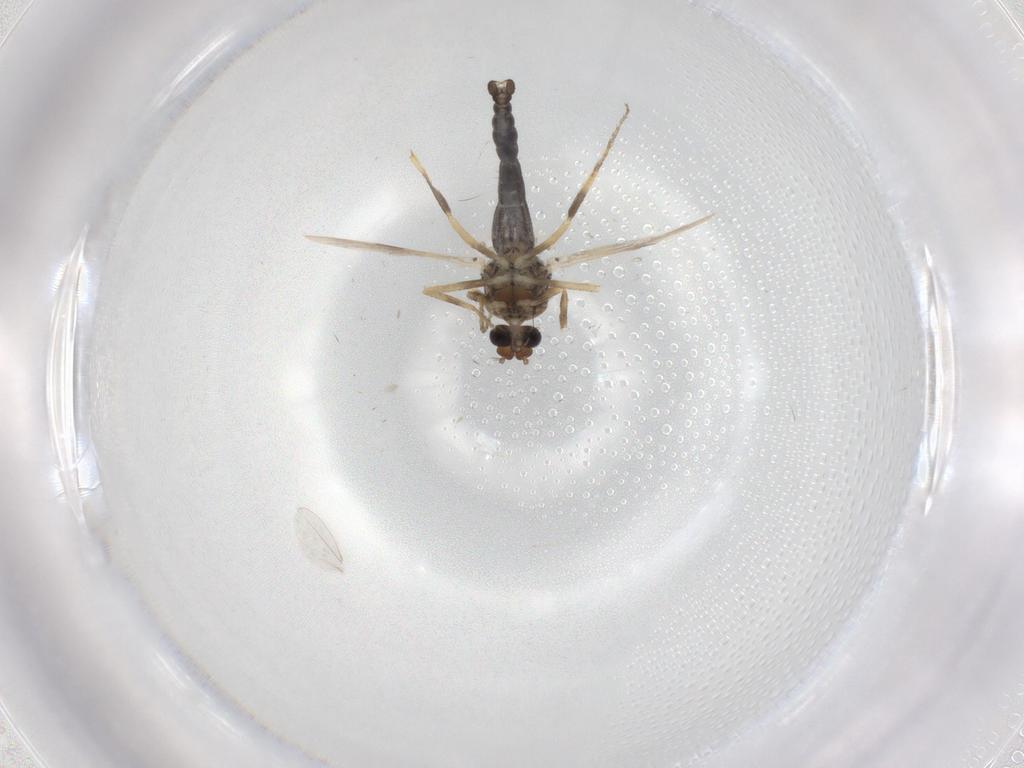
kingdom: Animalia
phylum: Arthropoda
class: Insecta
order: Diptera
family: Cecidomyiidae
